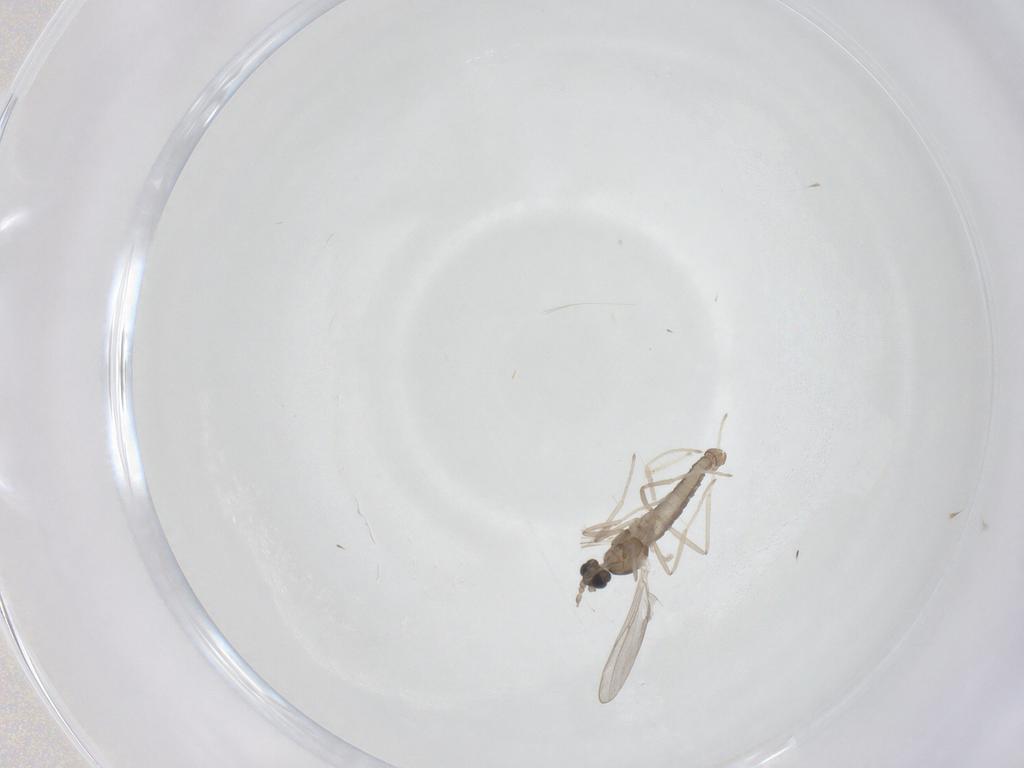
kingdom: Animalia
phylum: Arthropoda
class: Insecta
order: Diptera
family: Cecidomyiidae
